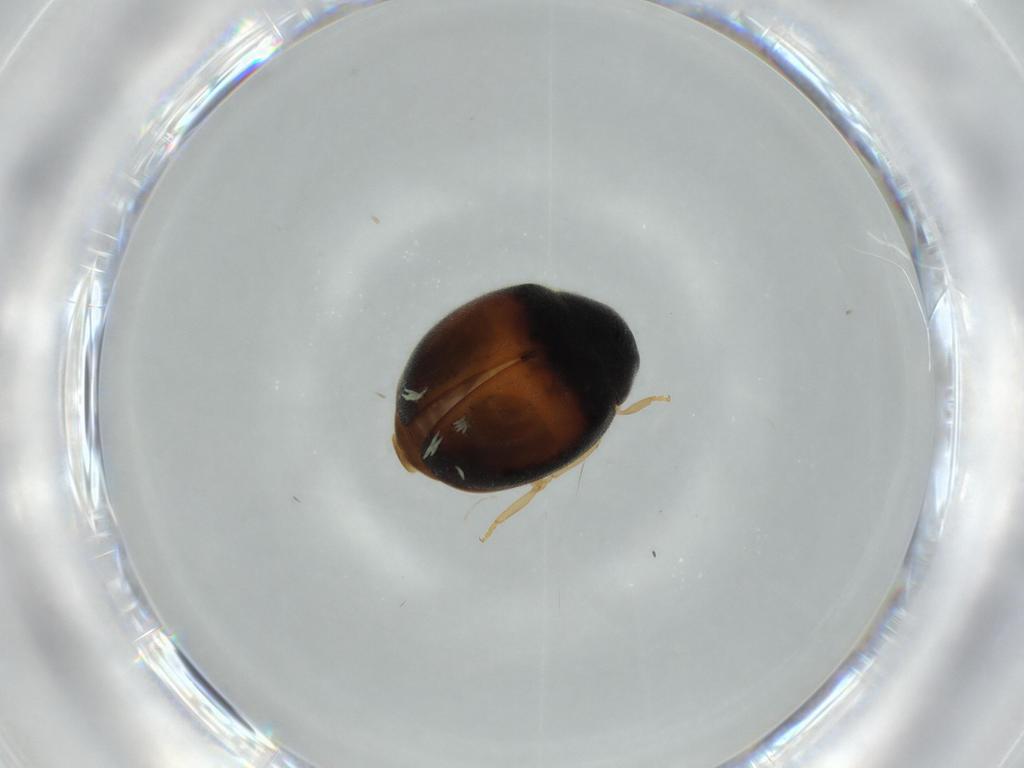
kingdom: Animalia
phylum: Arthropoda
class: Insecta
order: Coleoptera
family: Coccinellidae
